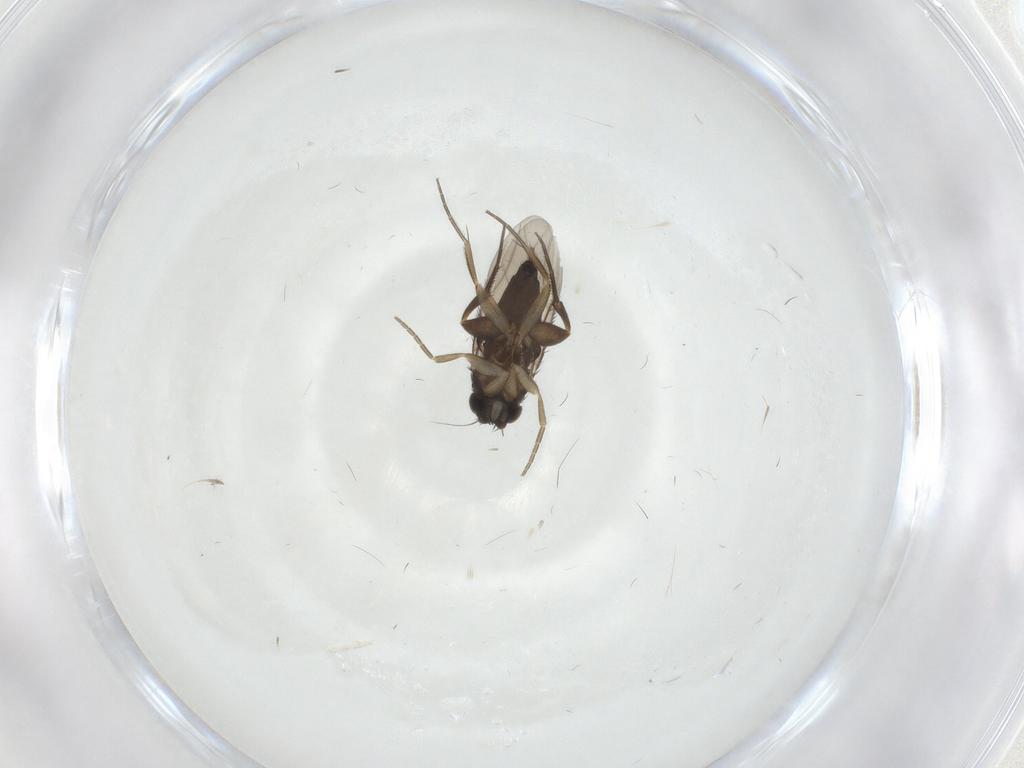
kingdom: Animalia
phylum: Arthropoda
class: Insecta
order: Diptera
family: Phoridae
